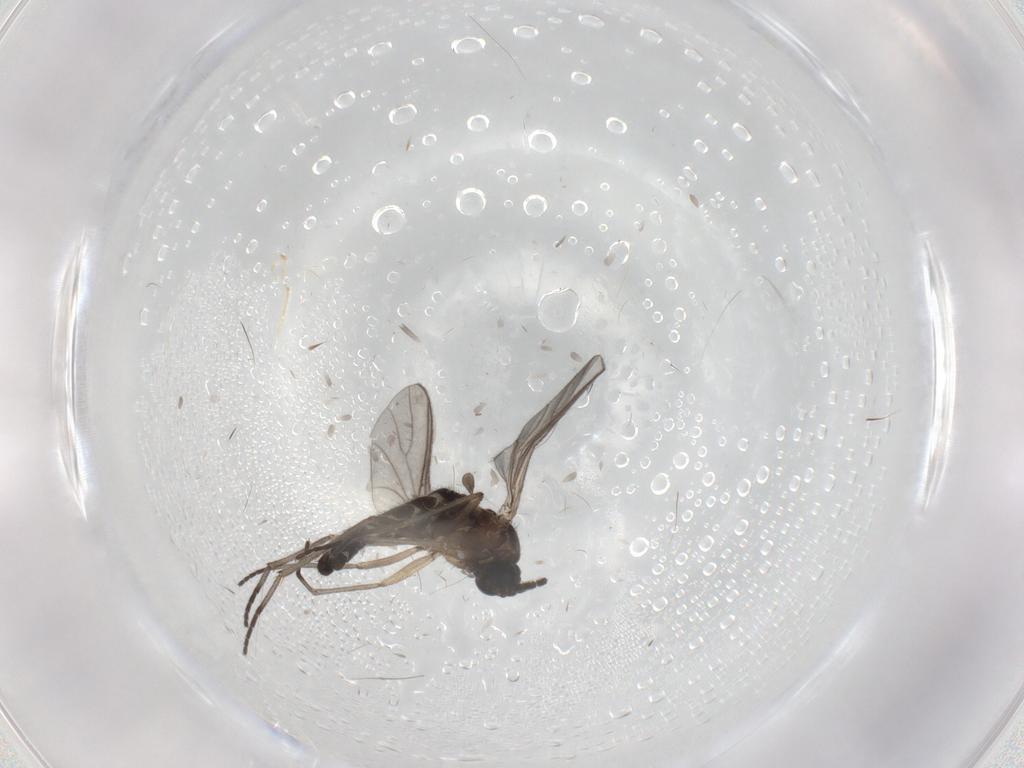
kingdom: Animalia
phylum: Arthropoda
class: Insecta
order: Diptera
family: Sciaridae
